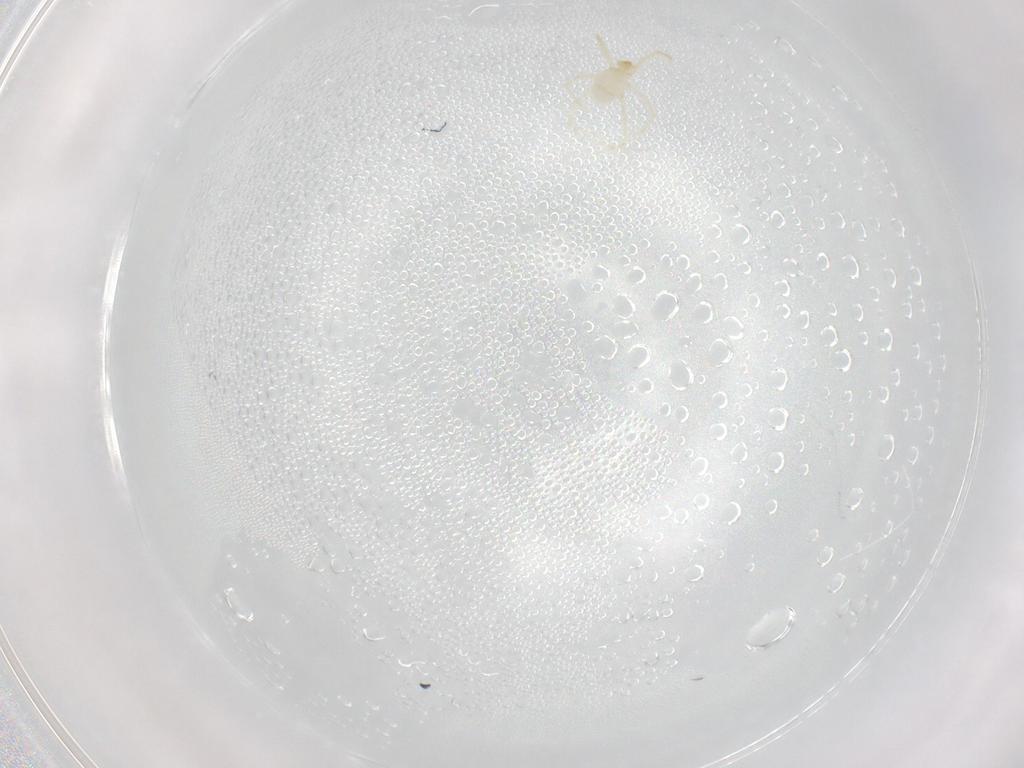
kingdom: Animalia
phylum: Arthropoda
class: Arachnida
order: Trombidiformes
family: Erythraeidae
